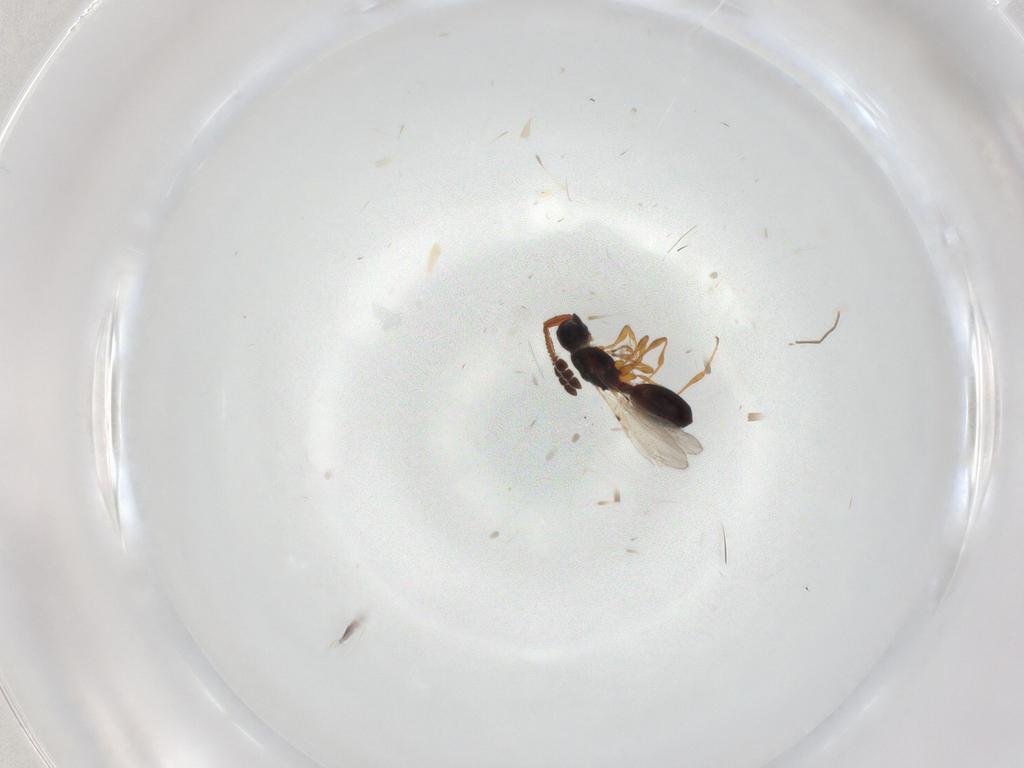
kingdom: Animalia
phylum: Arthropoda
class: Insecta
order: Hymenoptera
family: Diapriidae
